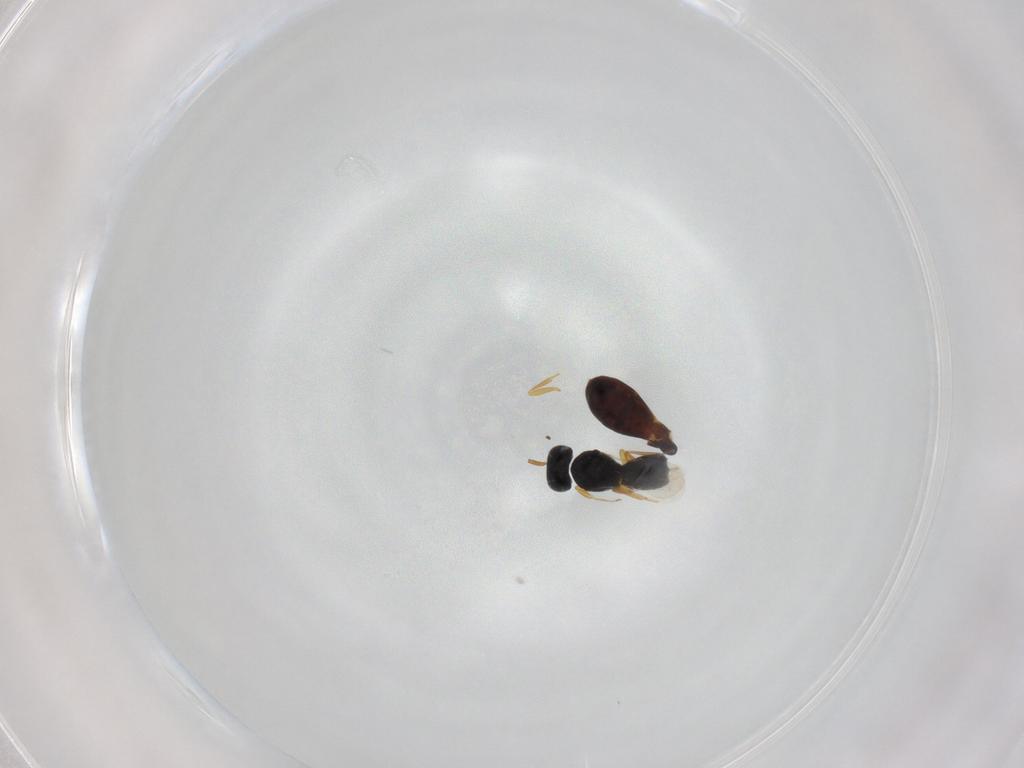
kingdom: Animalia
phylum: Arthropoda
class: Insecta
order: Hymenoptera
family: Scelionidae
